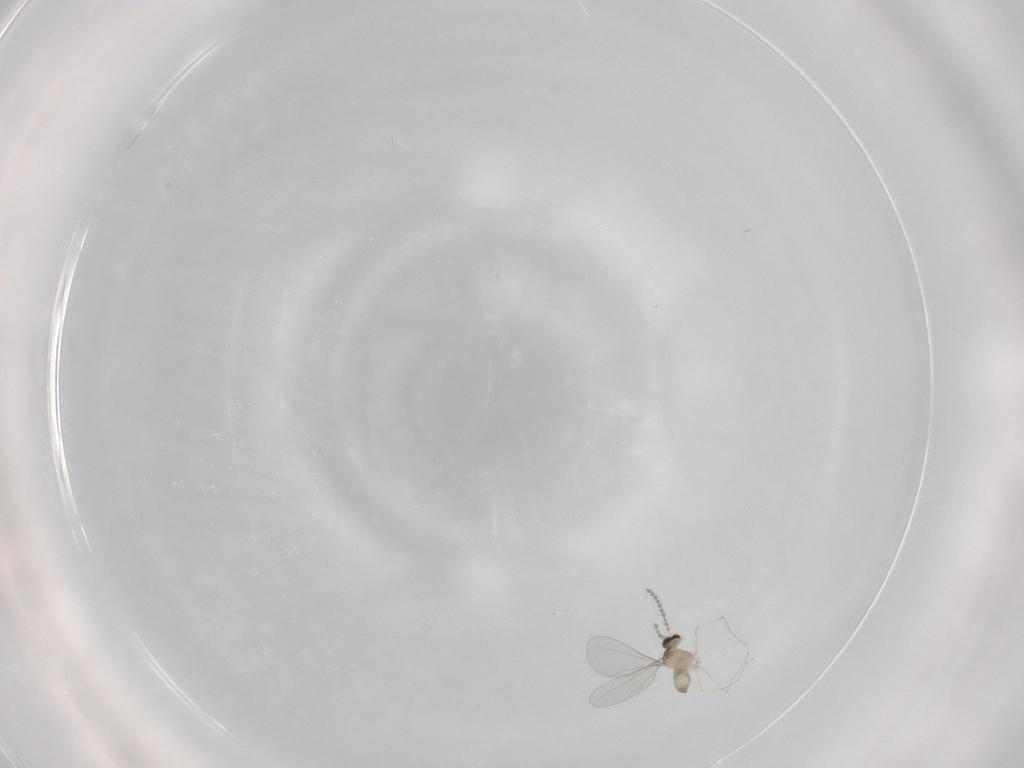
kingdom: Animalia
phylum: Arthropoda
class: Insecta
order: Diptera
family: Cecidomyiidae
